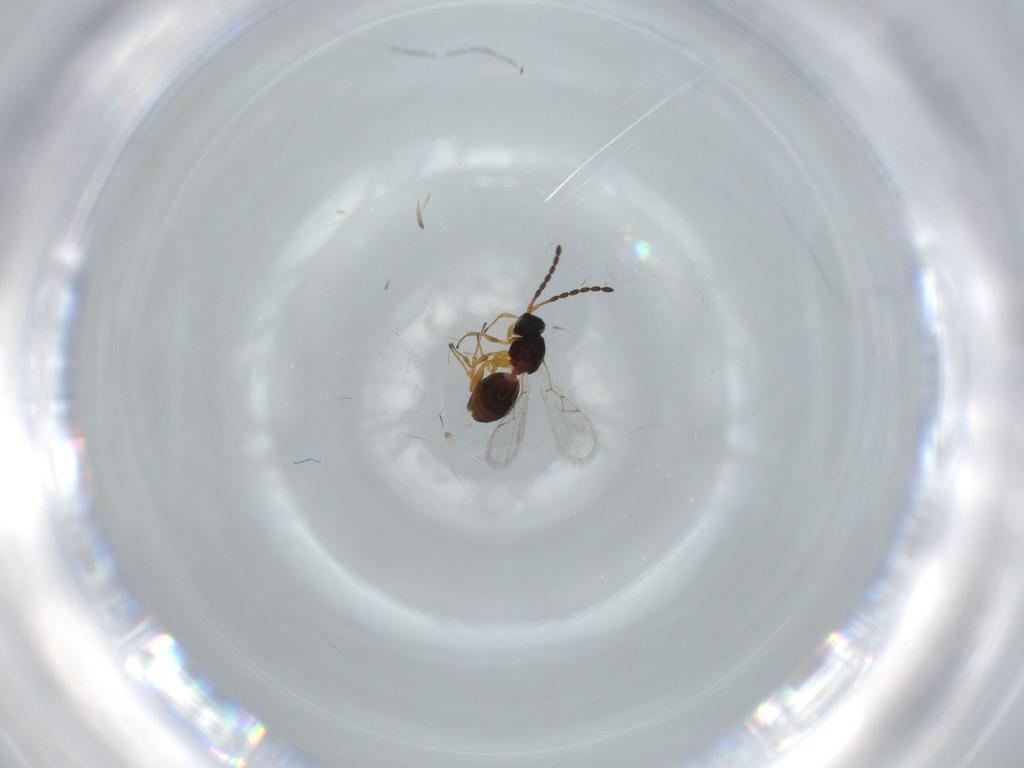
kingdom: Animalia
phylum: Arthropoda
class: Insecta
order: Hymenoptera
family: Figitidae
